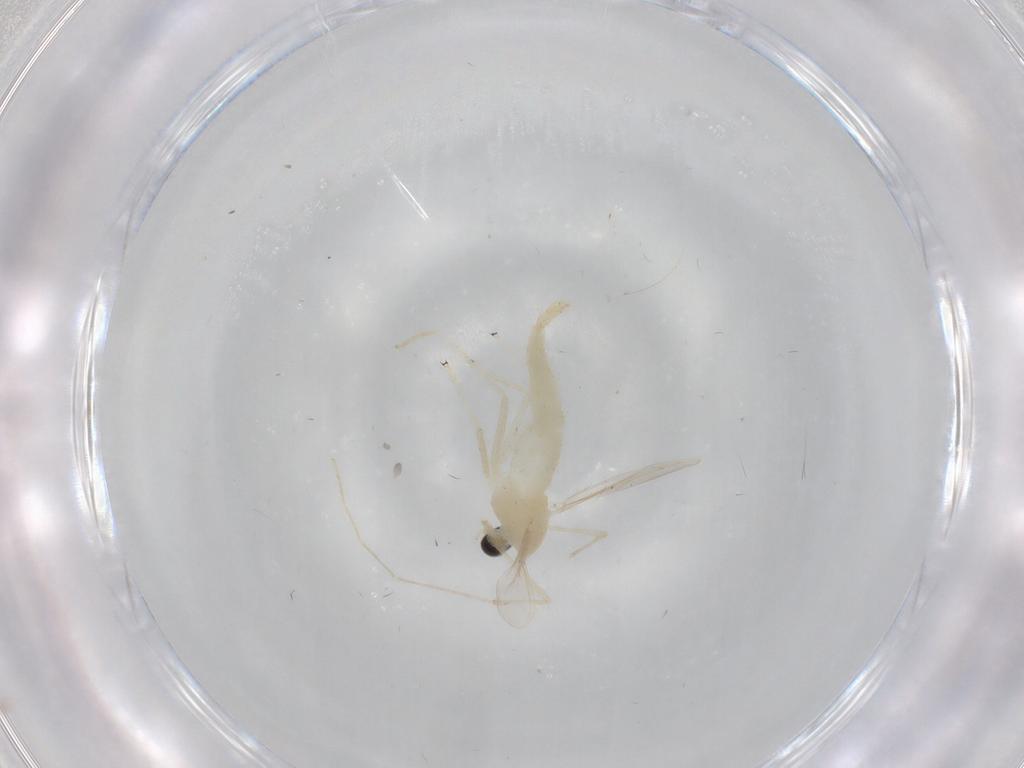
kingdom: Animalia
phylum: Arthropoda
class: Insecta
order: Diptera
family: Chironomidae
